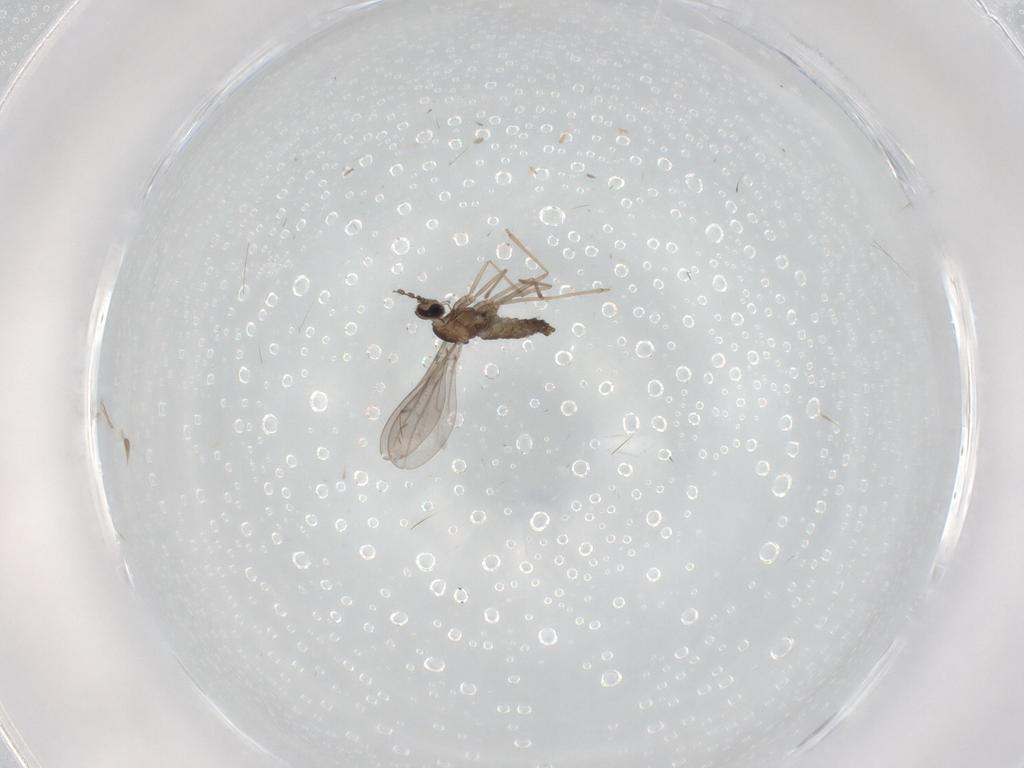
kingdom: Animalia
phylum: Arthropoda
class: Insecta
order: Diptera
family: Cecidomyiidae
